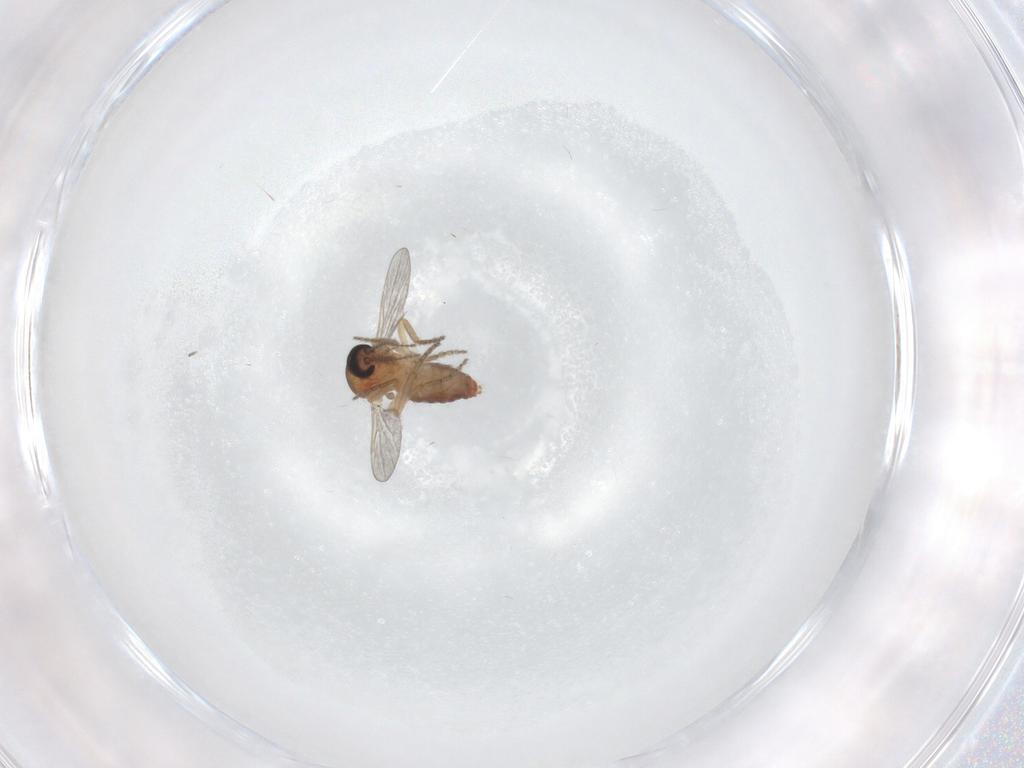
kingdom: Animalia
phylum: Arthropoda
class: Insecta
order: Diptera
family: Ceratopogonidae
